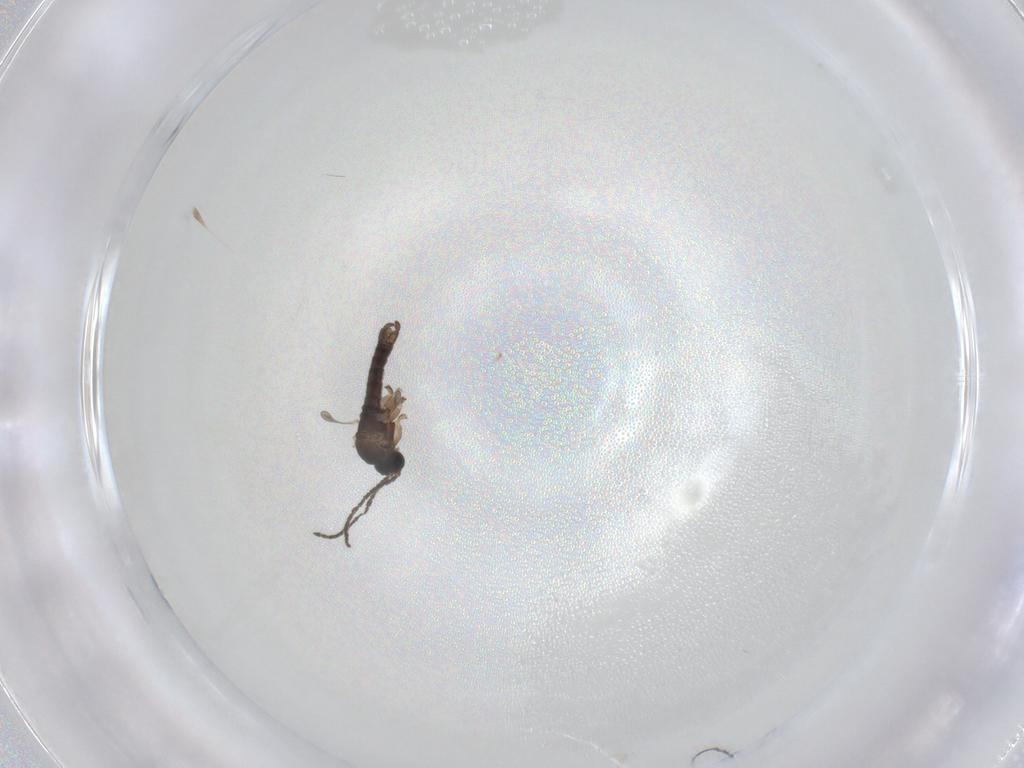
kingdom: Animalia
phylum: Arthropoda
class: Insecta
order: Diptera
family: Sciaridae
